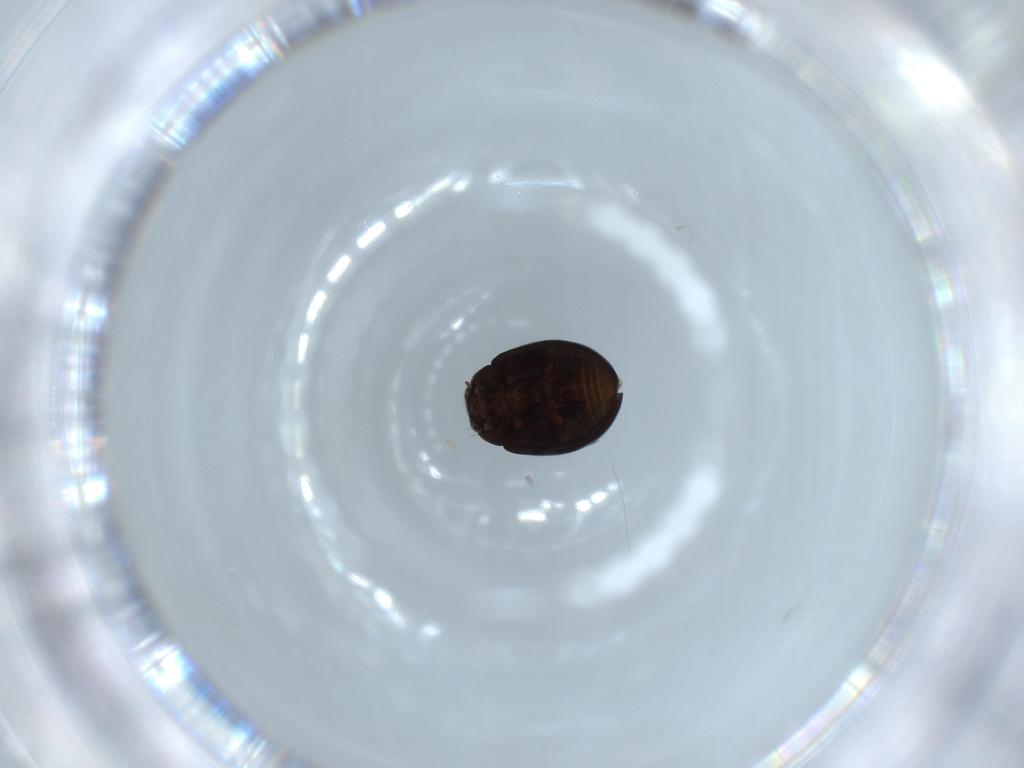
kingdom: Animalia
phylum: Arthropoda
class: Insecta
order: Coleoptera
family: Coccinellidae
